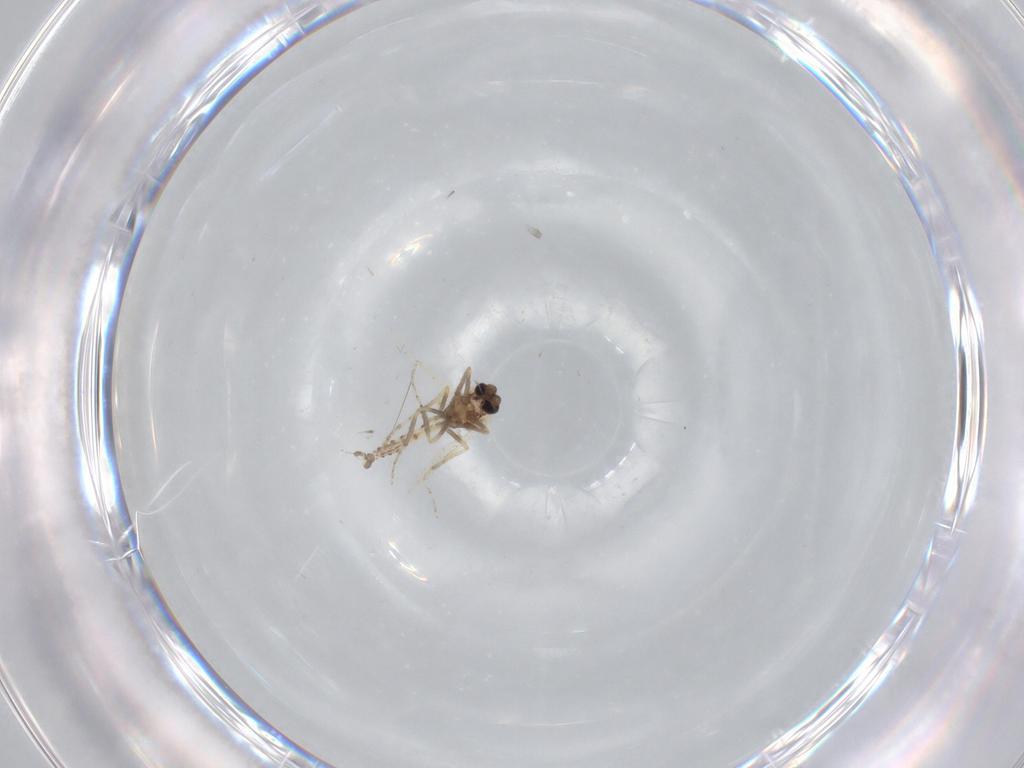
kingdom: Animalia
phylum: Arthropoda
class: Insecta
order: Diptera
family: Ceratopogonidae
